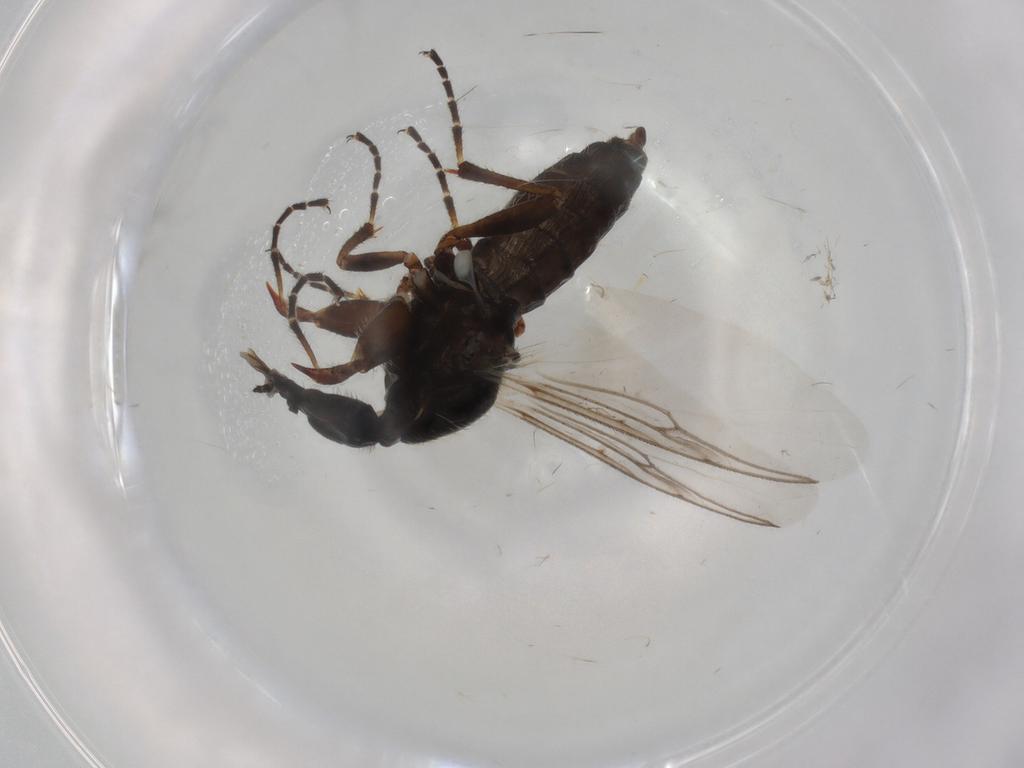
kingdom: Animalia
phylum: Arthropoda
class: Insecta
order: Diptera
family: Bibionidae
